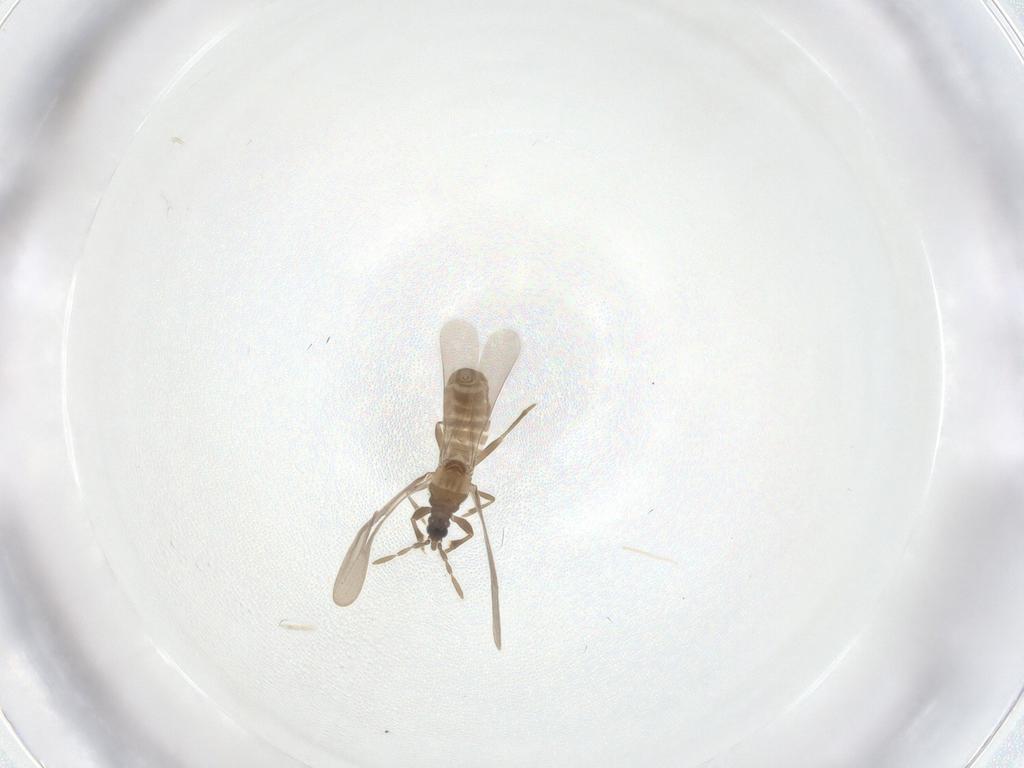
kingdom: Animalia
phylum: Arthropoda
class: Insecta
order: Hemiptera
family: Enicocephalidae
